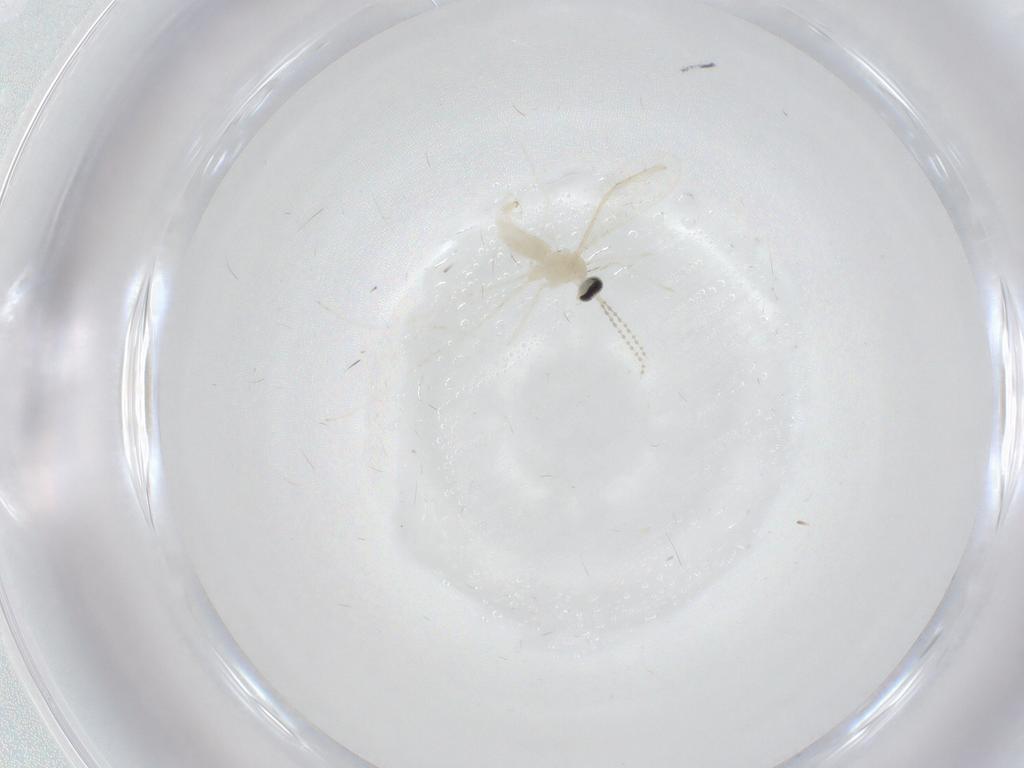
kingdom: Animalia
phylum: Arthropoda
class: Insecta
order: Diptera
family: Cecidomyiidae
